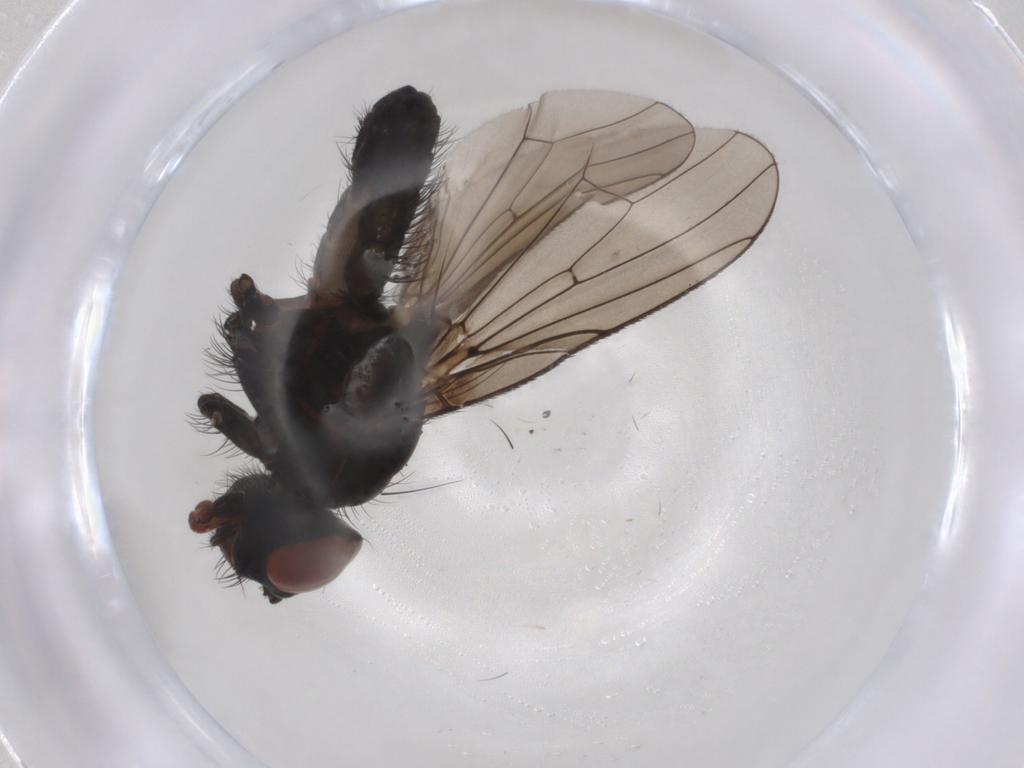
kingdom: Animalia
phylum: Arthropoda
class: Insecta
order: Diptera
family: Anthomyiidae
